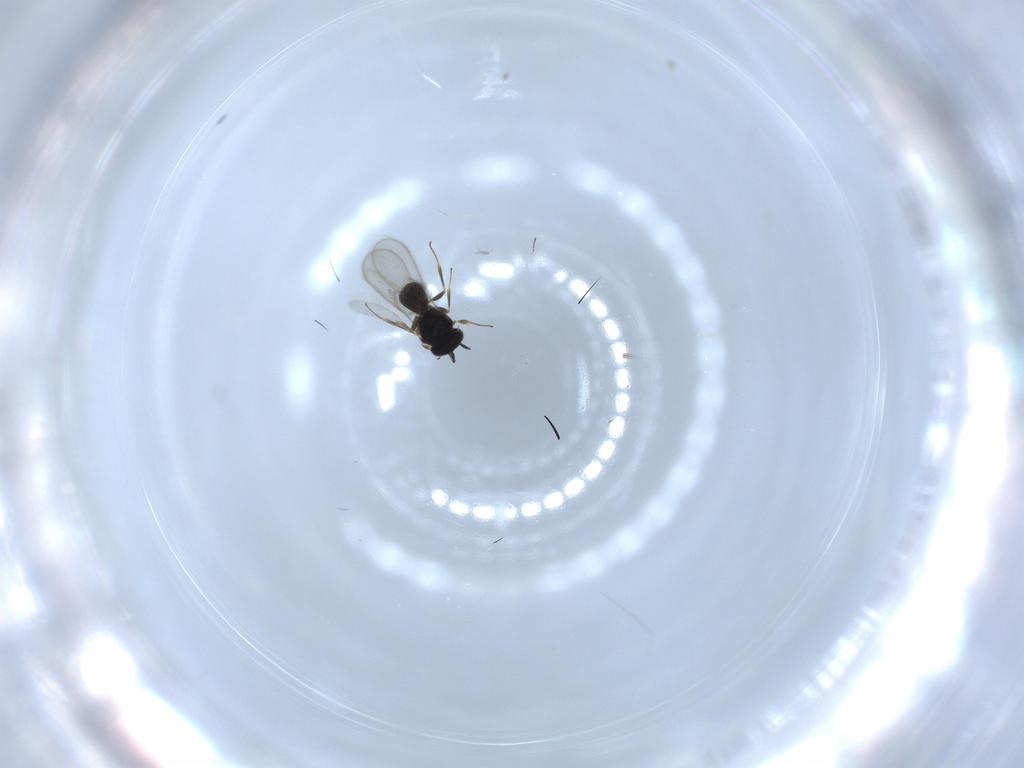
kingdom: Animalia
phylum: Arthropoda
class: Insecta
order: Hymenoptera
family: Scelionidae
